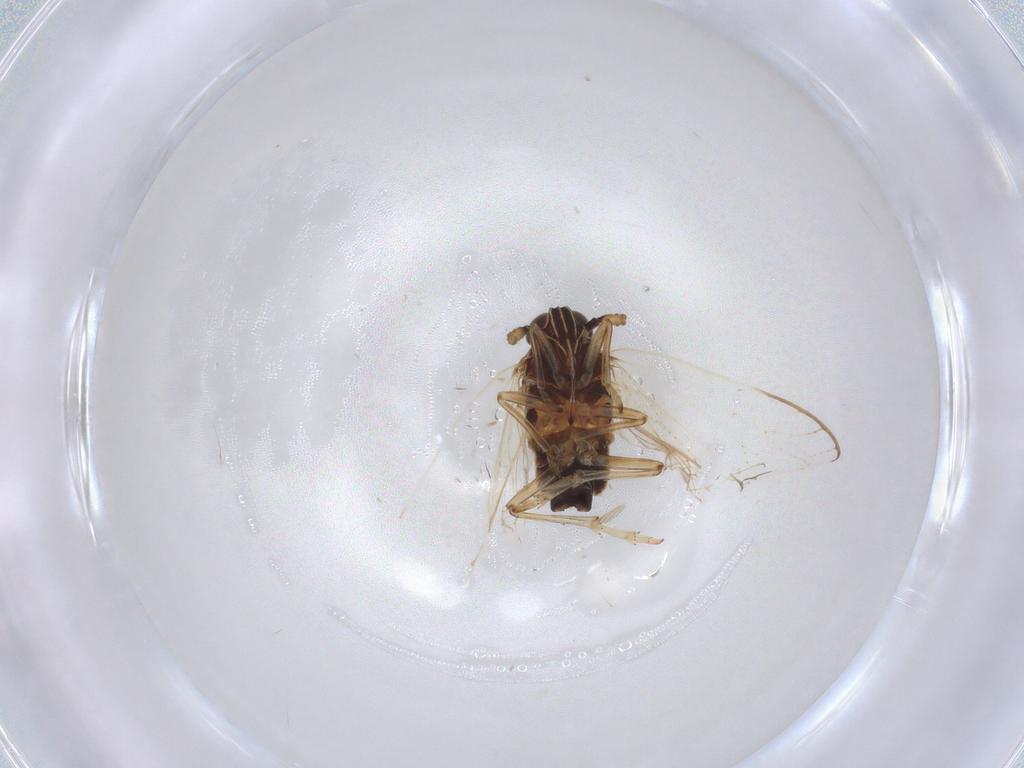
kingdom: Animalia
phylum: Arthropoda
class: Insecta
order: Hemiptera
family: Delphacidae
